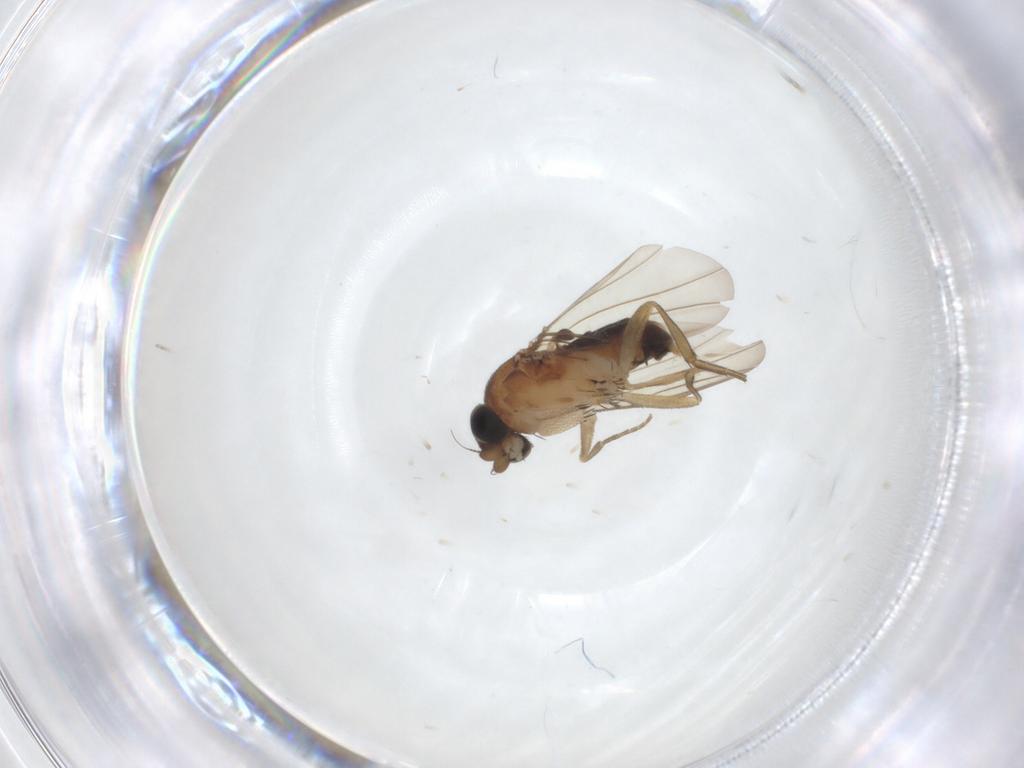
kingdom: Animalia
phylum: Arthropoda
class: Insecta
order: Diptera
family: Phoridae
